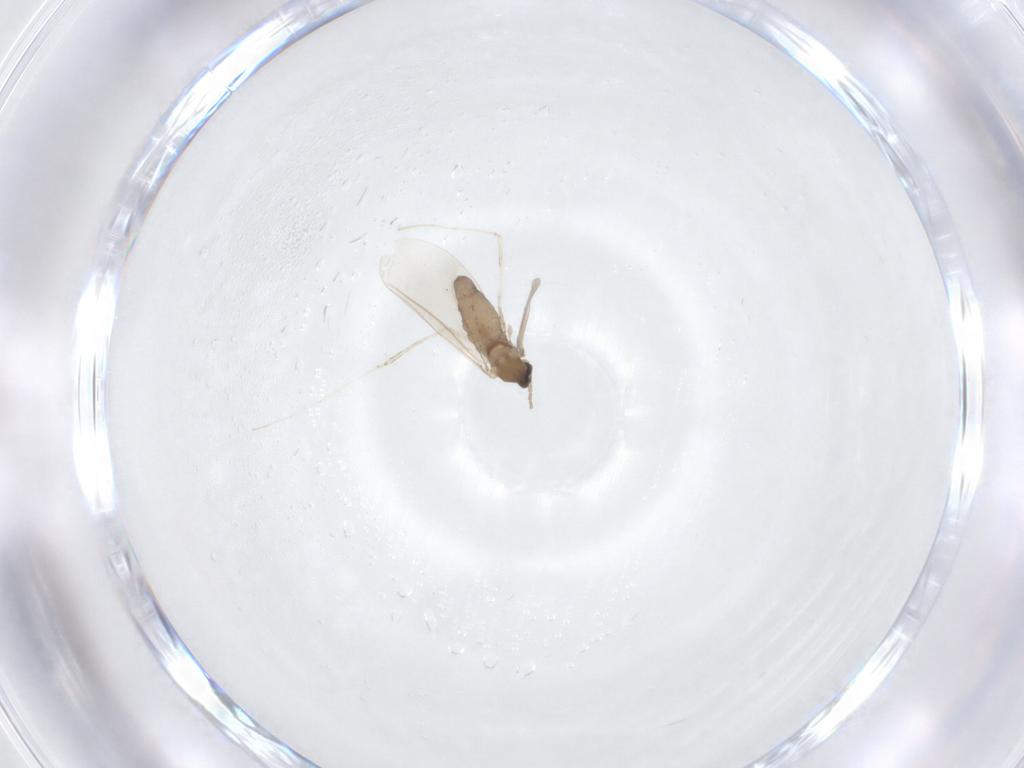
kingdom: Animalia
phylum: Arthropoda
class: Insecta
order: Diptera
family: Cecidomyiidae
